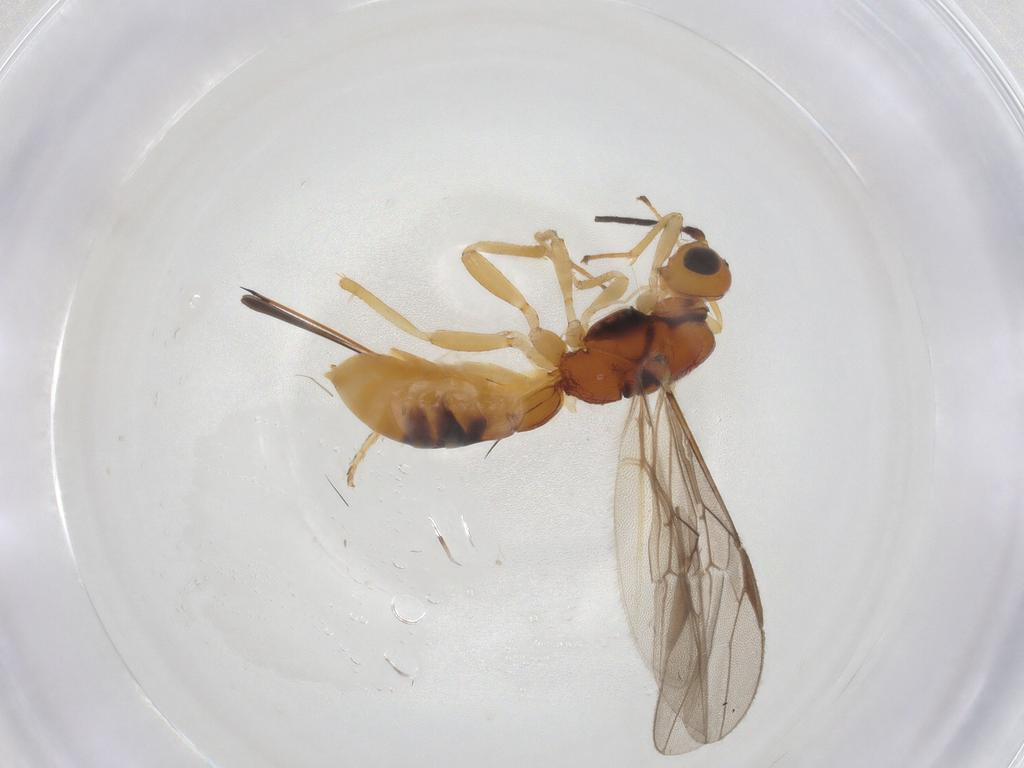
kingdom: Animalia
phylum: Arthropoda
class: Insecta
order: Hymenoptera
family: Braconidae
